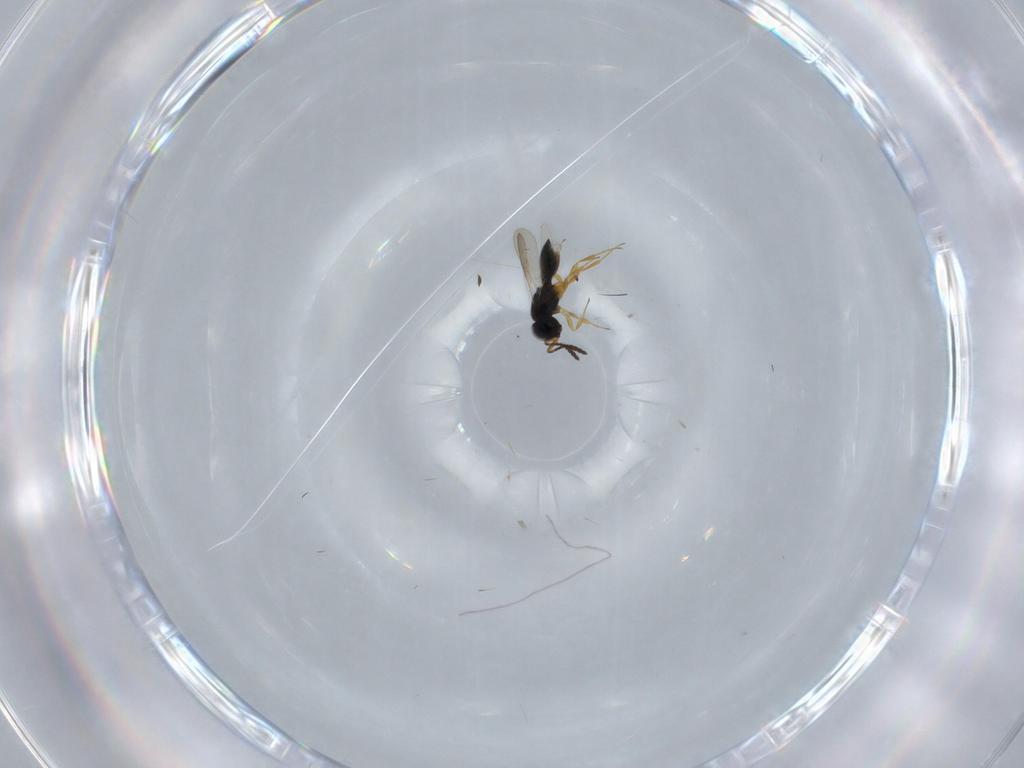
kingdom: Animalia
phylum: Arthropoda
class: Insecta
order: Hymenoptera
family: Scelionidae
